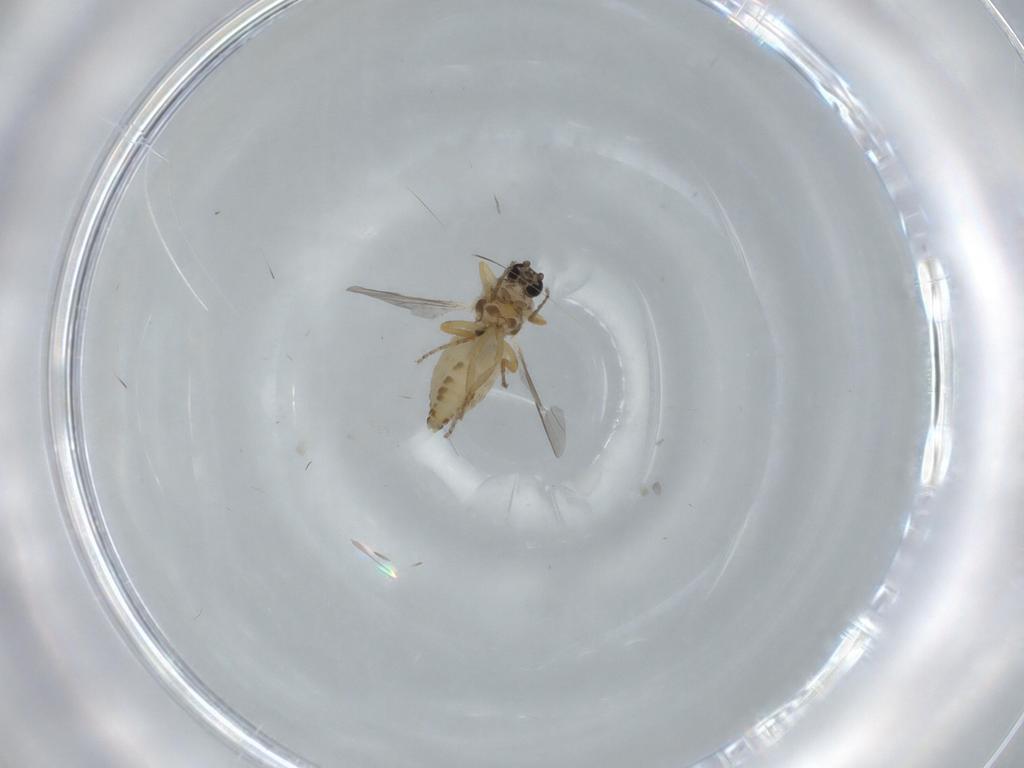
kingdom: Animalia
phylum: Arthropoda
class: Insecta
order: Diptera
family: Ceratopogonidae
